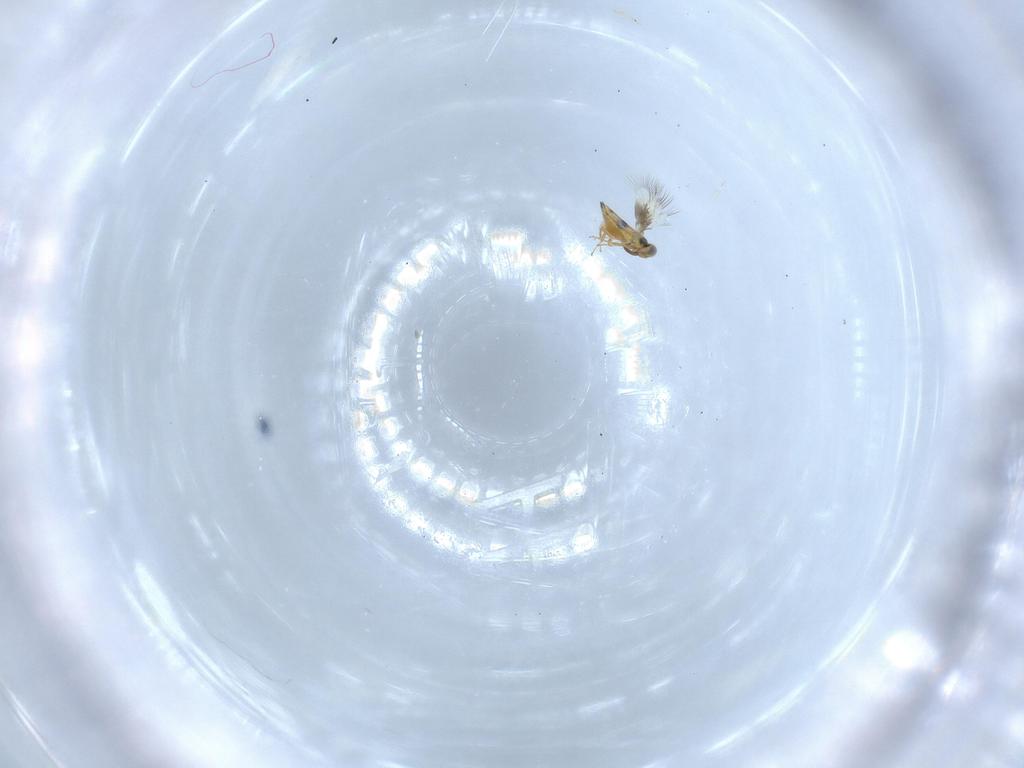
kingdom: Animalia
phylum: Arthropoda
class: Insecta
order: Hymenoptera
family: Signiphoridae
